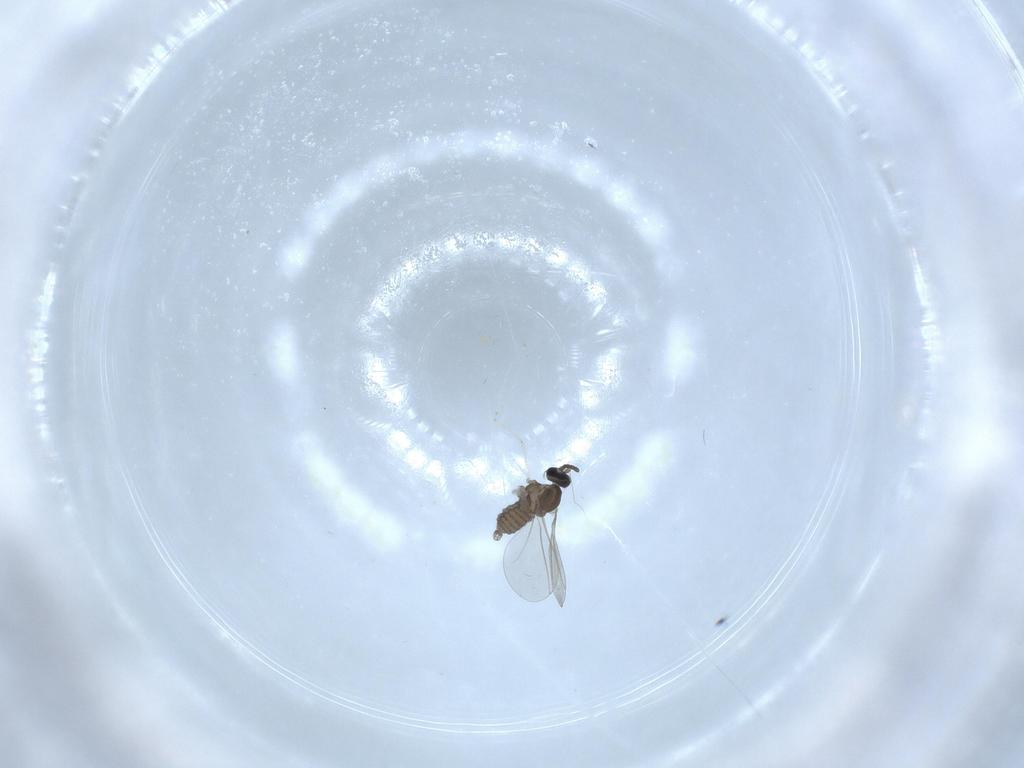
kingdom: Animalia
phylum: Arthropoda
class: Insecta
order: Diptera
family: Cecidomyiidae
